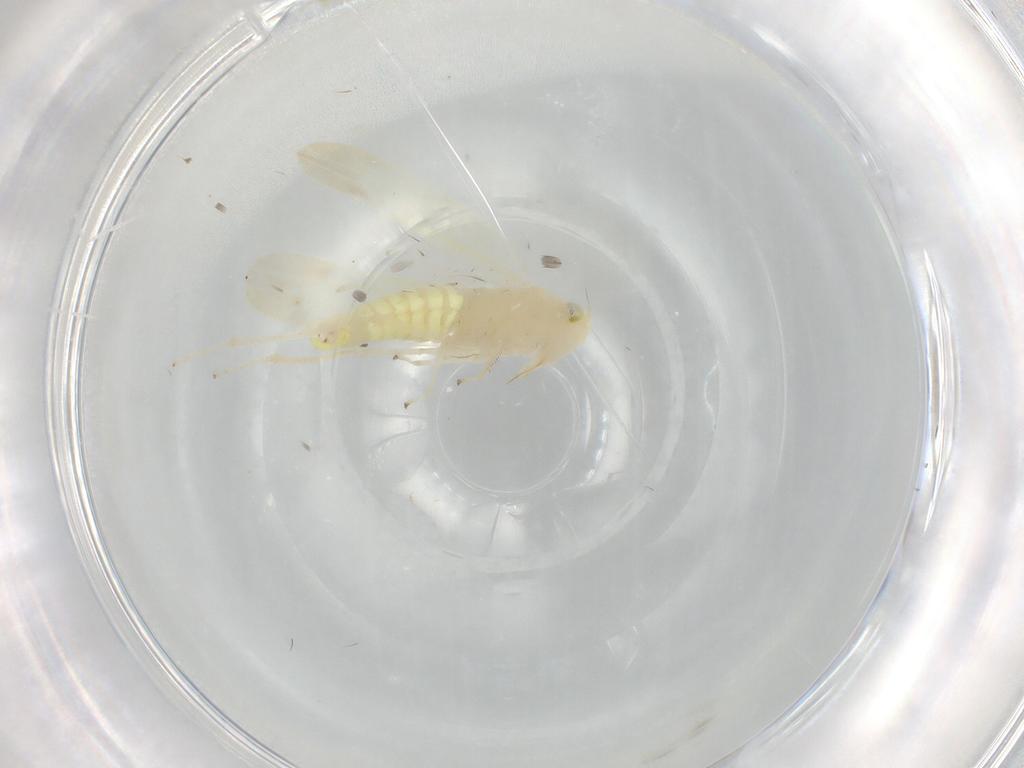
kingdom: Animalia
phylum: Arthropoda
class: Insecta
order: Hemiptera
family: Cicadellidae
